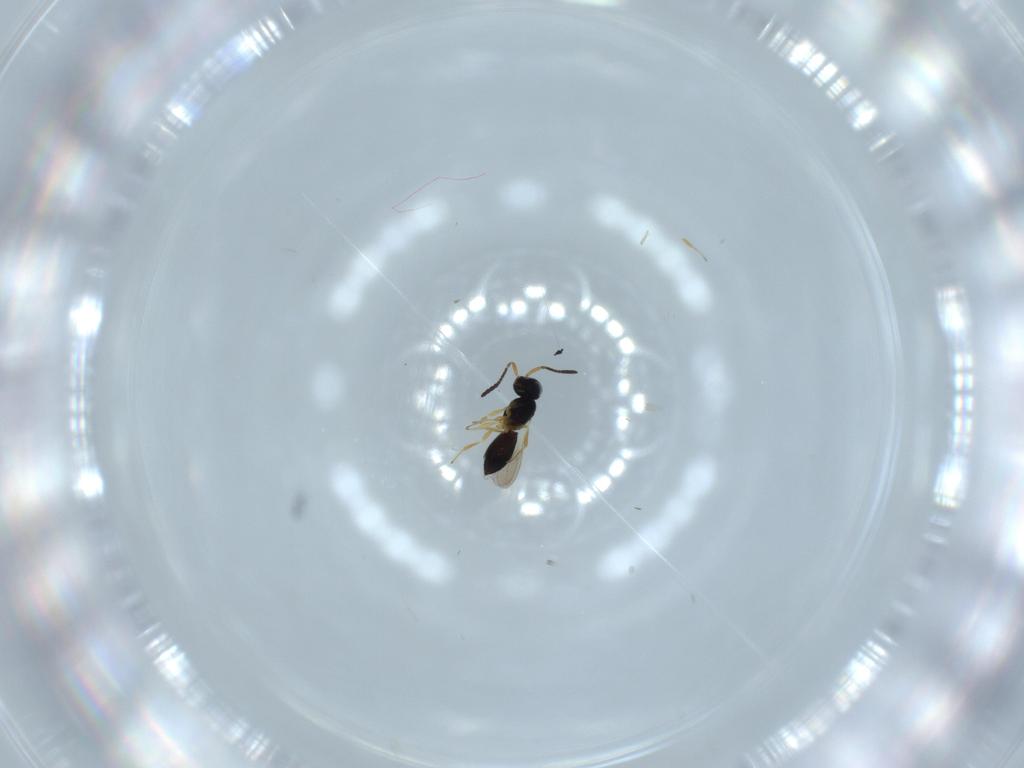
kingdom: Animalia
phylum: Arthropoda
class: Insecta
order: Hymenoptera
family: Scelionidae
